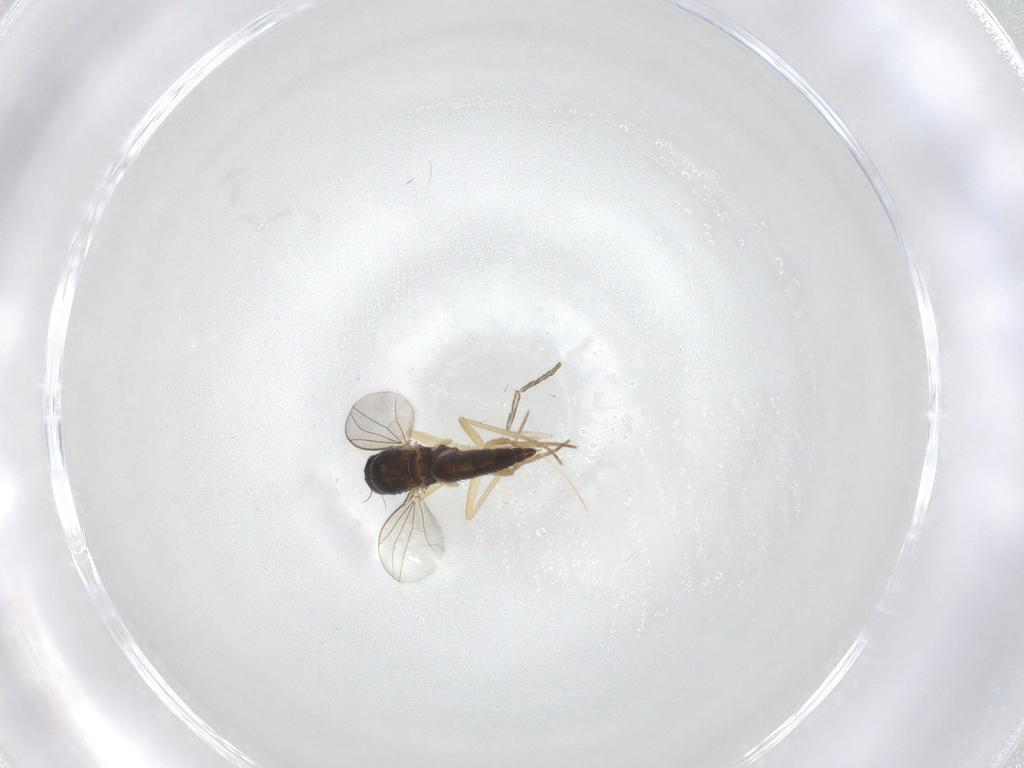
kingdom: Animalia
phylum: Arthropoda
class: Insecta
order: Diptera
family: Dolichopodidae
